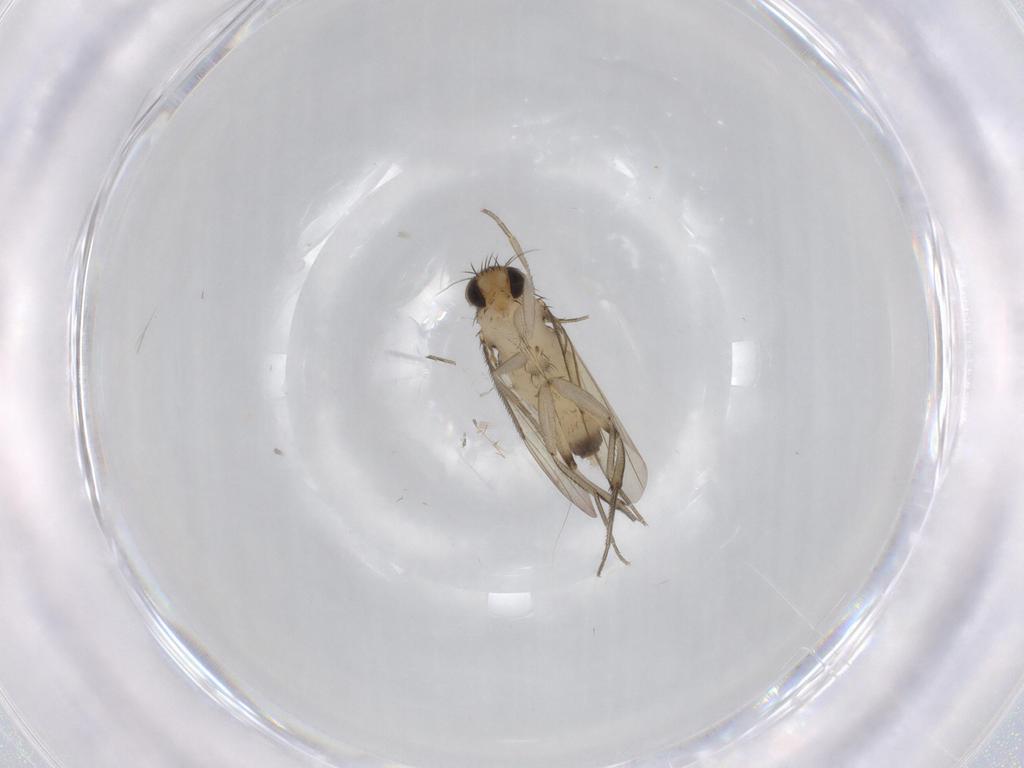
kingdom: Animalia
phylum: Arthropoda
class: Insecta
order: Diptera
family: Phoridae
